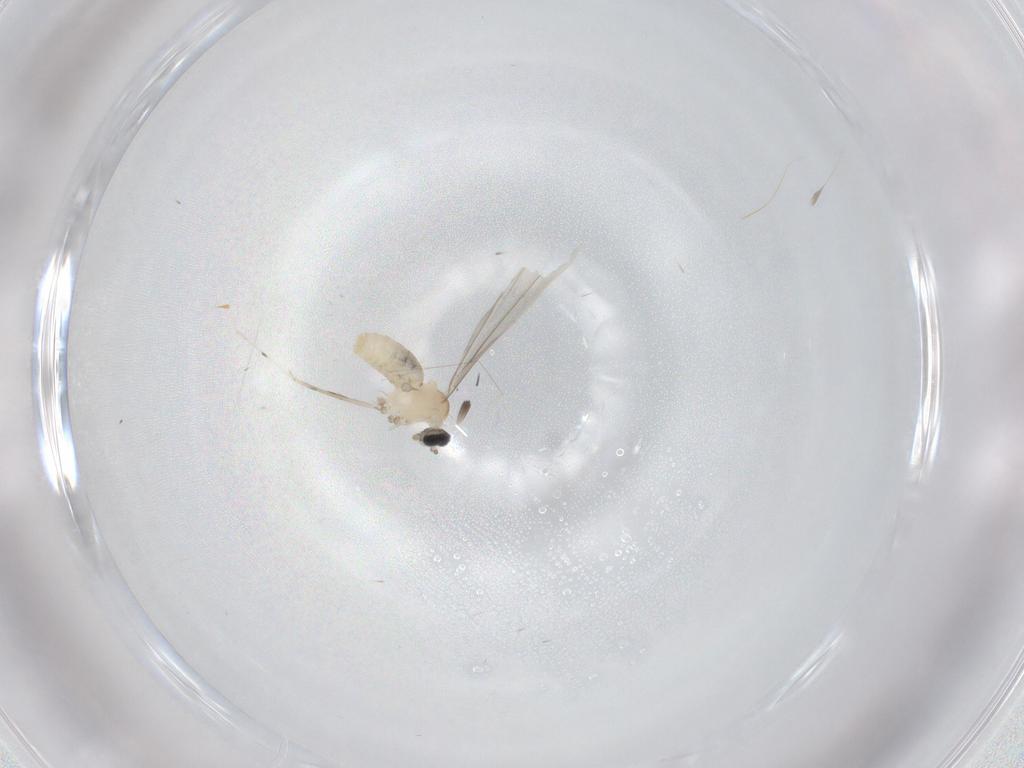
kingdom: Animalia
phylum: Arthropoda
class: Insecta
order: Diptera
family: Cecidomyiidae
